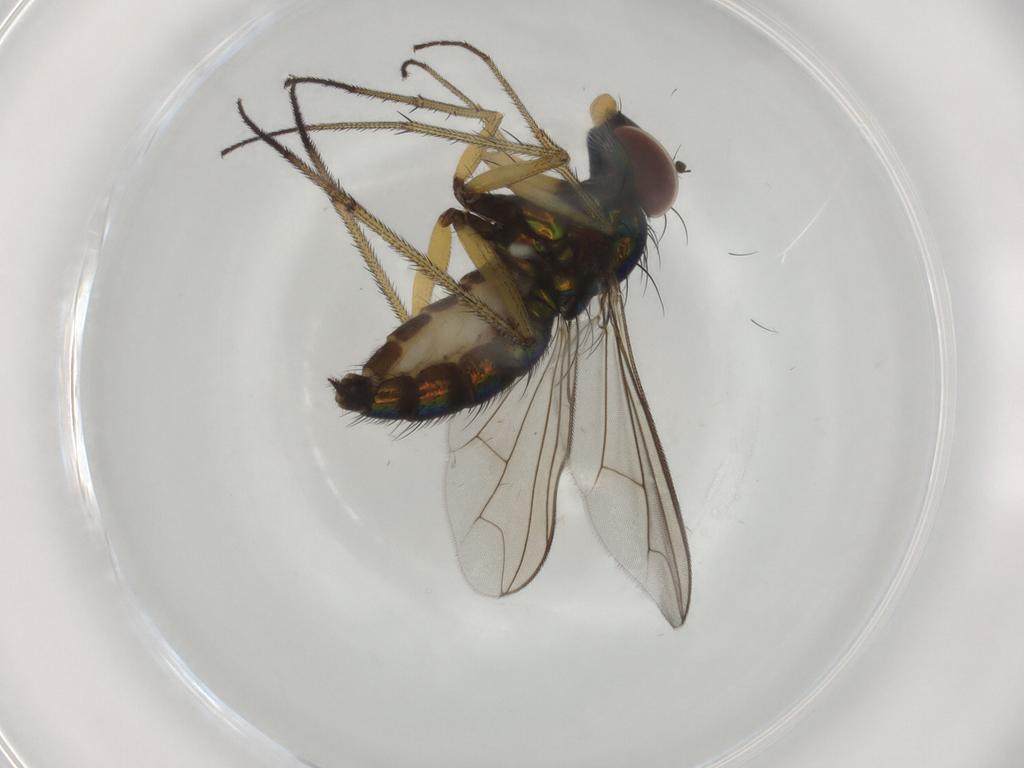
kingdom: Animalia
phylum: Arthropoda
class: Insecta
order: Diptera
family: Dolichopodidae
